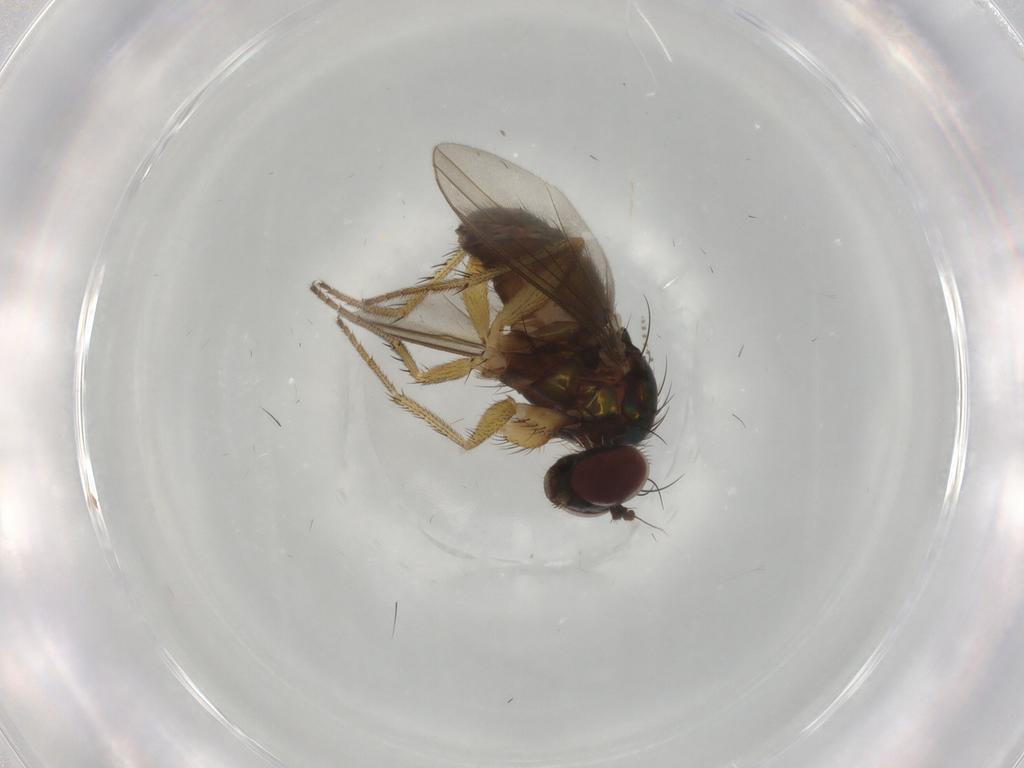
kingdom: Animalia
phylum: Arthropoda
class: Insecta
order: Diptera
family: Dolichopodidae
